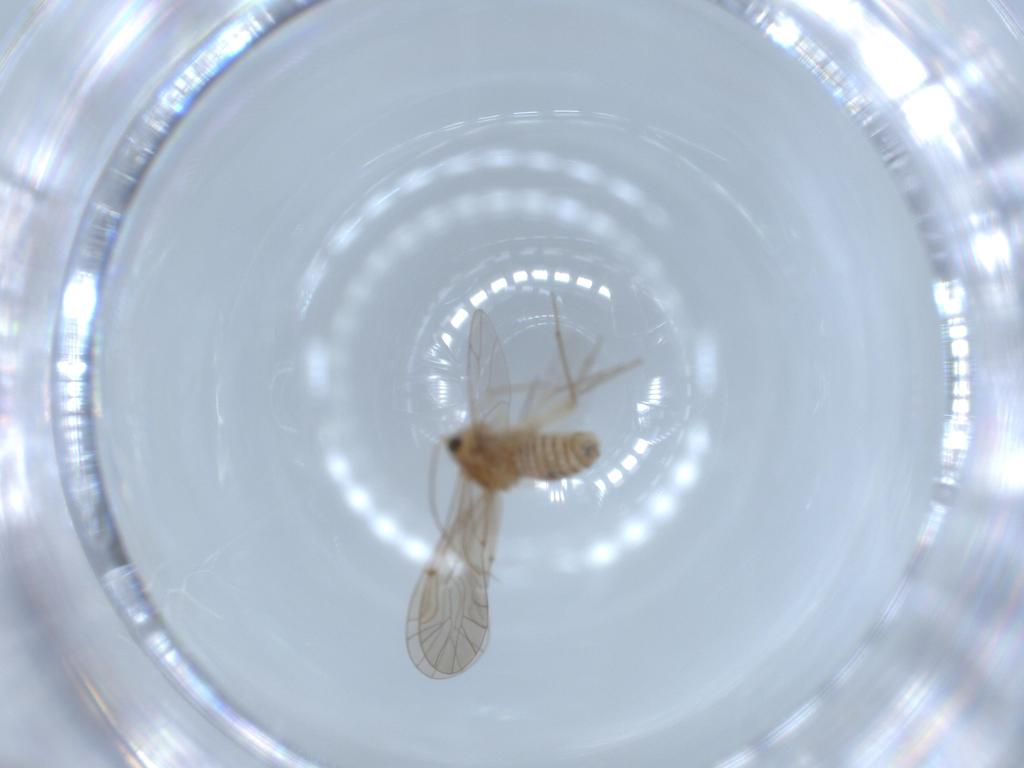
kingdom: Animalia
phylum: Arthropoda
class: Insecta
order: Psocodea
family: Lachesillidae
